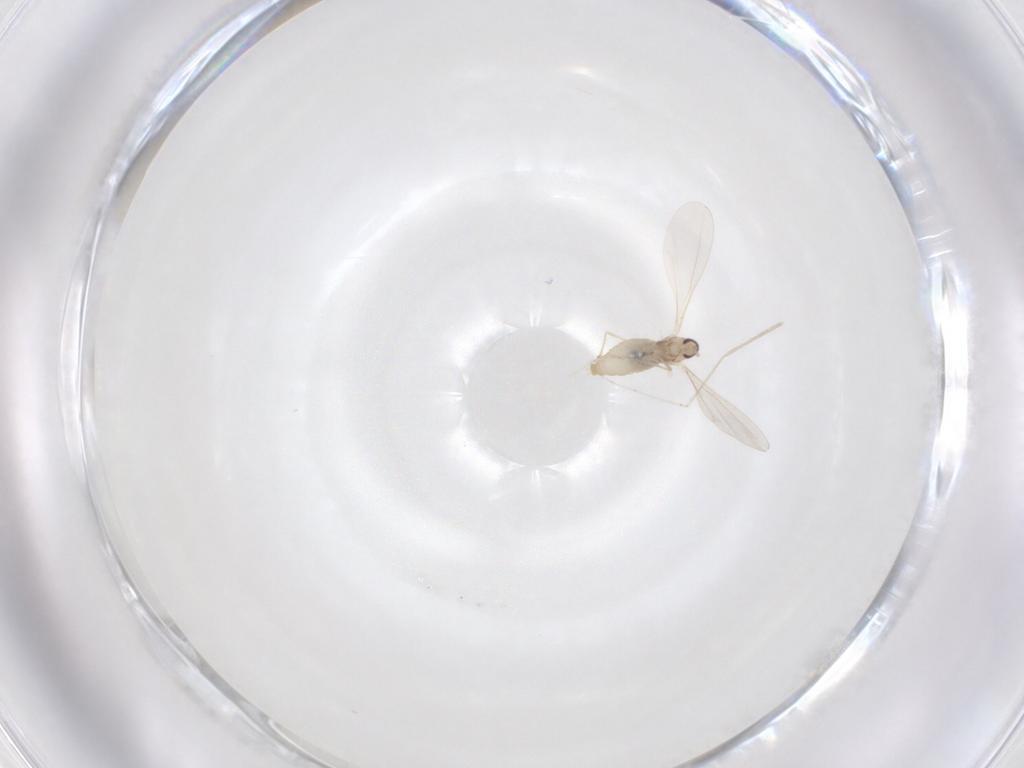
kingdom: Animalia
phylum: Arthropoda
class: Insecta
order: Diptera
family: Cecidomyiidae
